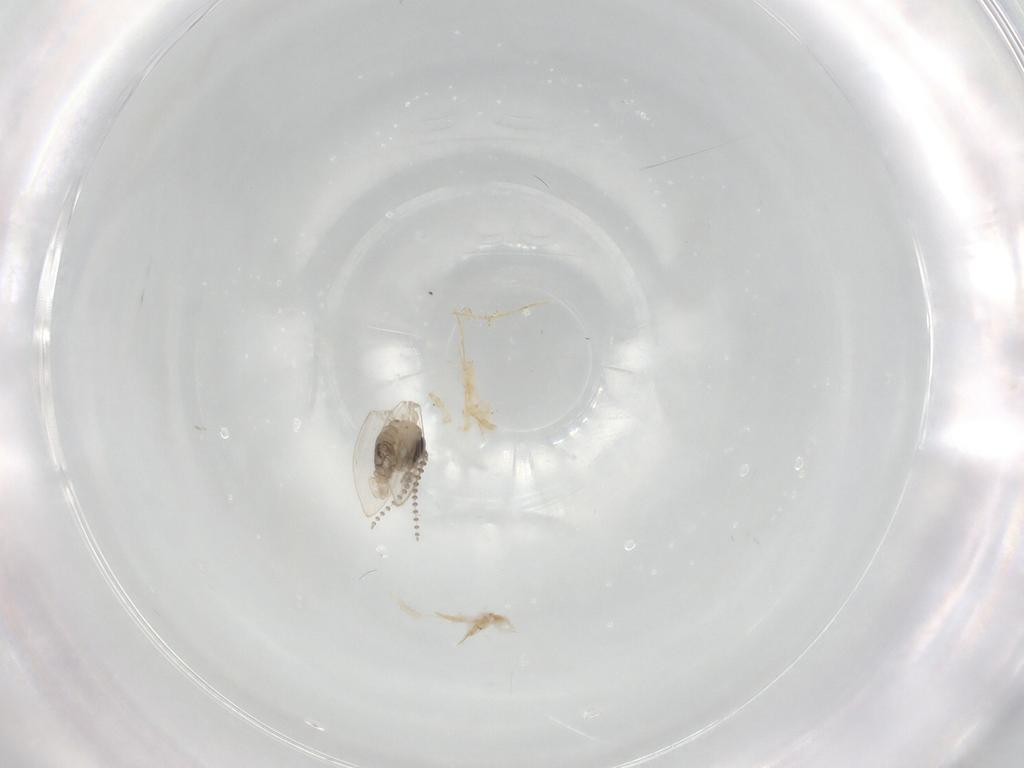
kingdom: Animalia
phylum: Arthropoda
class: Insecta
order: Diptera
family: Psychodidae
